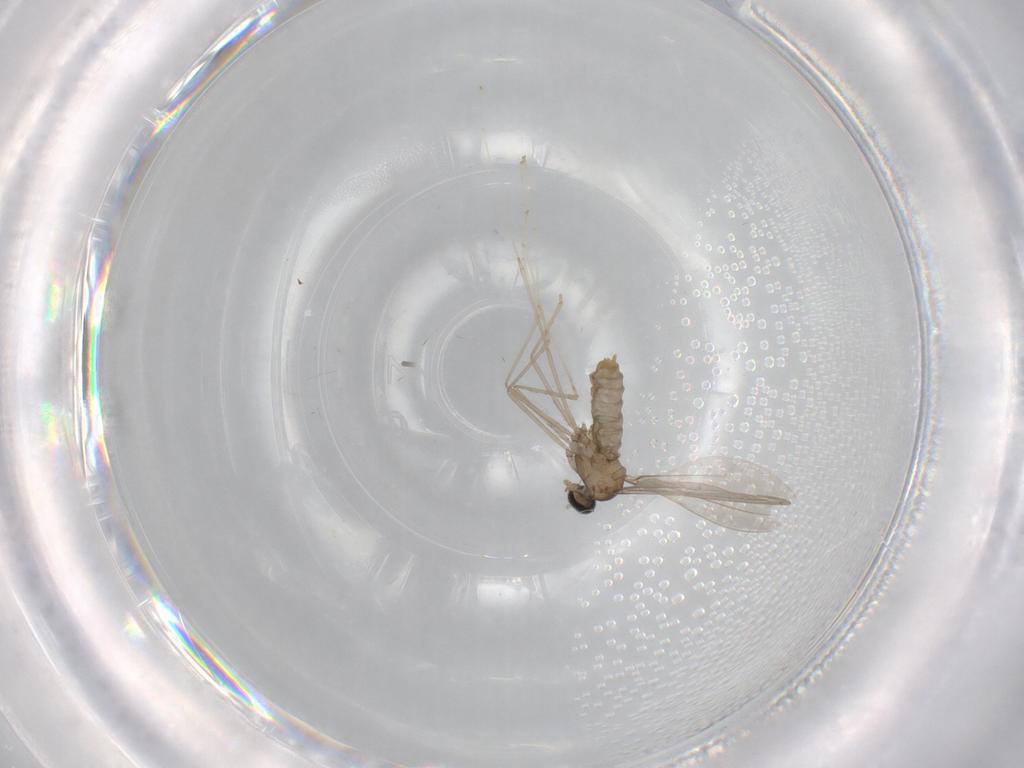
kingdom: Animalia
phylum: Arthropoda
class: Insecta
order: Diptera
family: Cecidomyiidae
